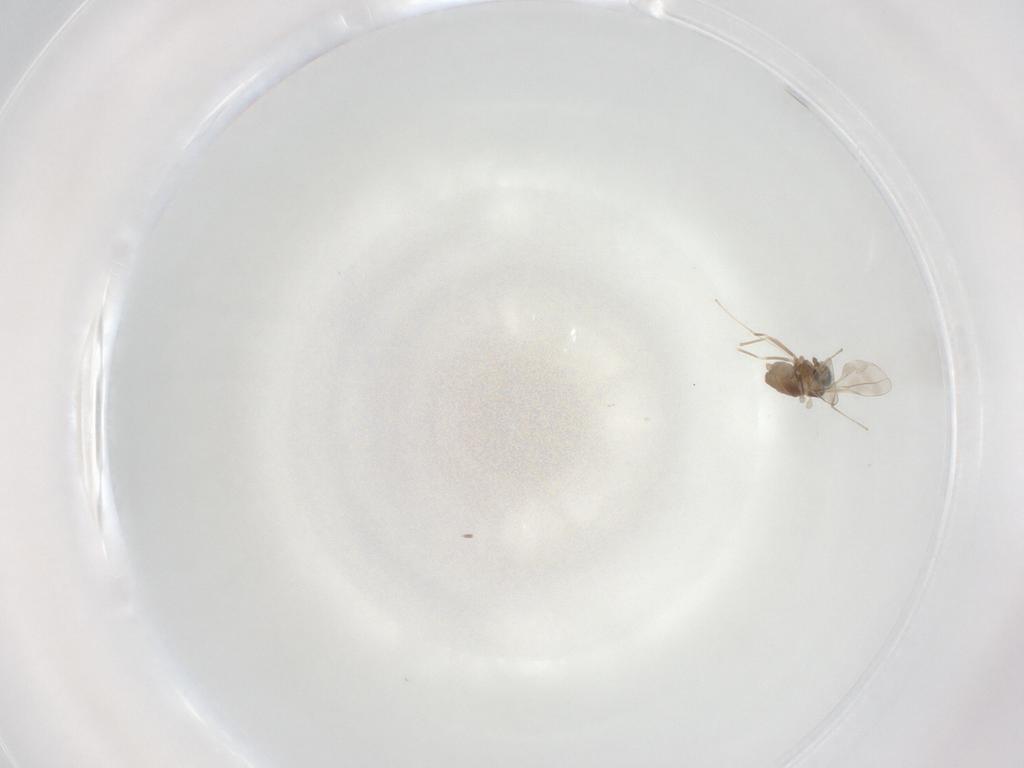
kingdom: Animalia
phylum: Arthropoda
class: Insecta
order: Diptera
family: Cecidomyiidae
